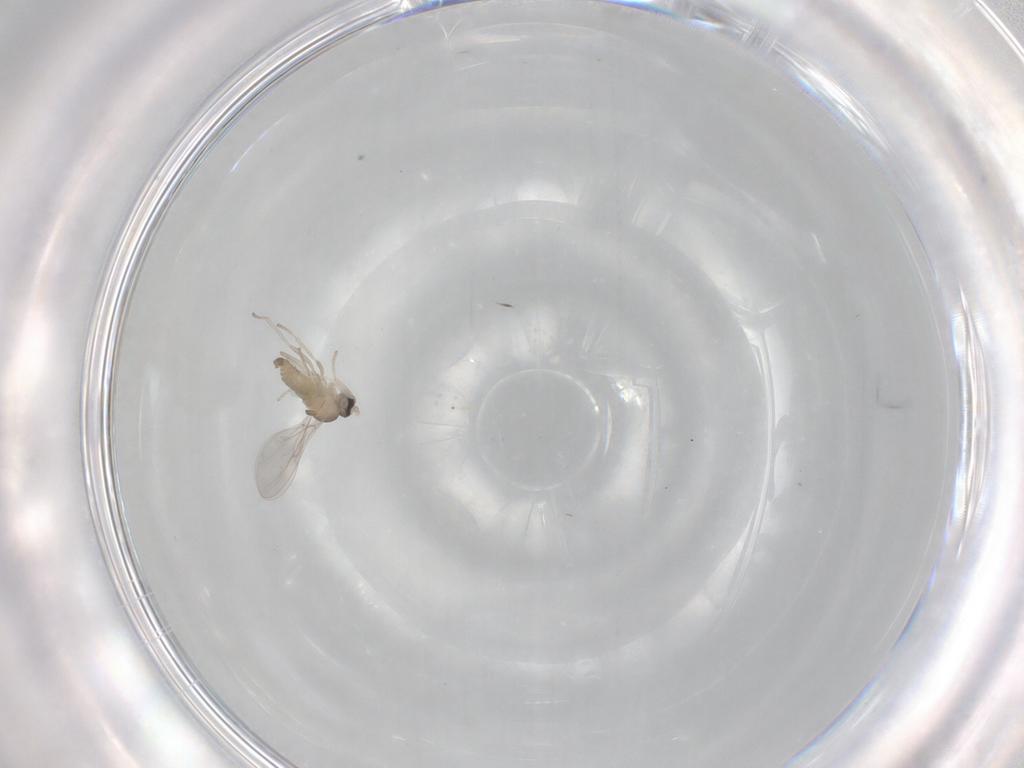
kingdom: Animalia
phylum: Arthropoda
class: Insecta
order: Diptera
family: Cecidomyiidae
